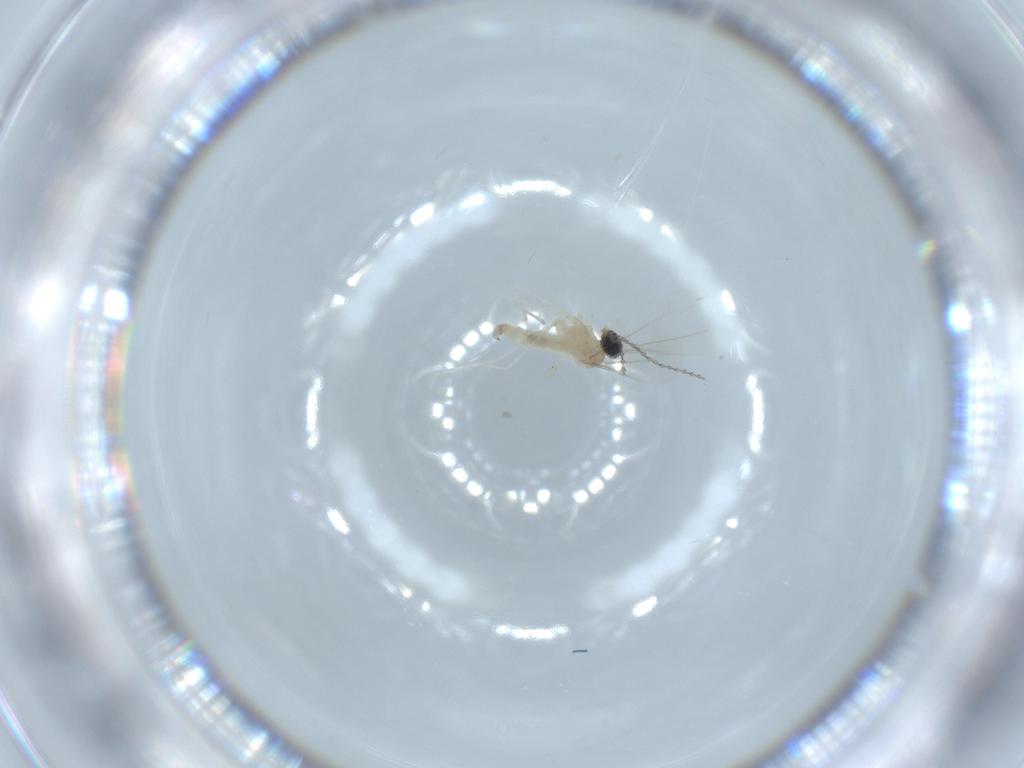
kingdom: Animalia
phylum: Arthropoda
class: Insecta
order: Diptera
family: Cecidomyiidae
